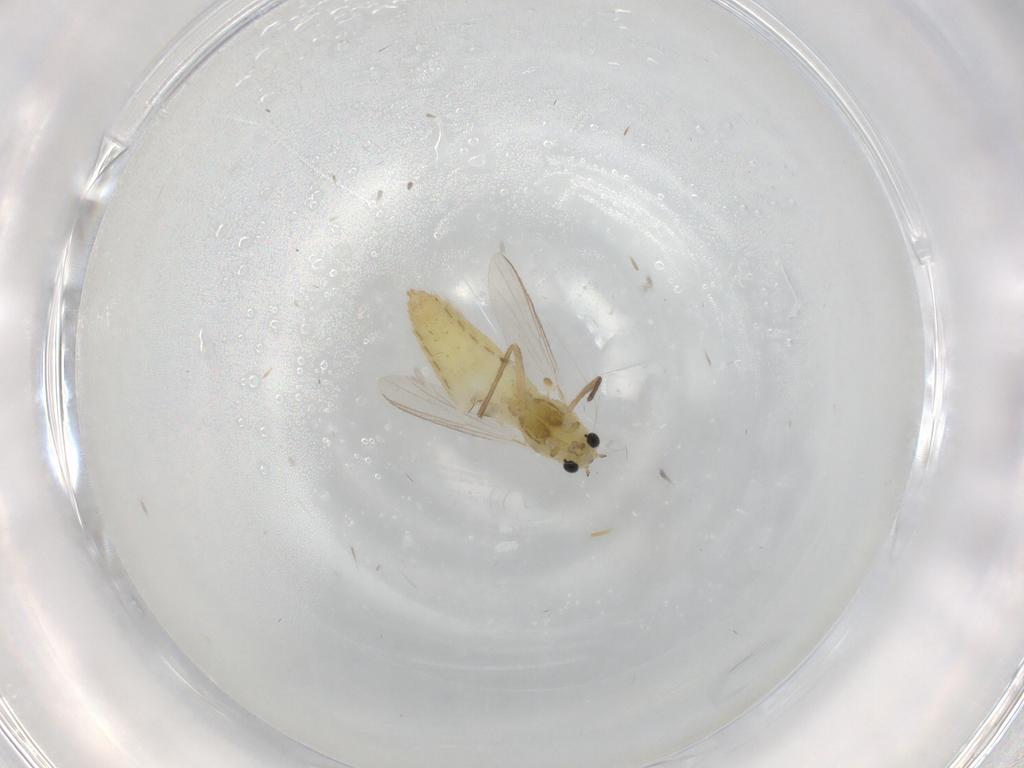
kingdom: Animalia
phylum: Arthropoda
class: Insecta
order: Diptera
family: Chironomidae
